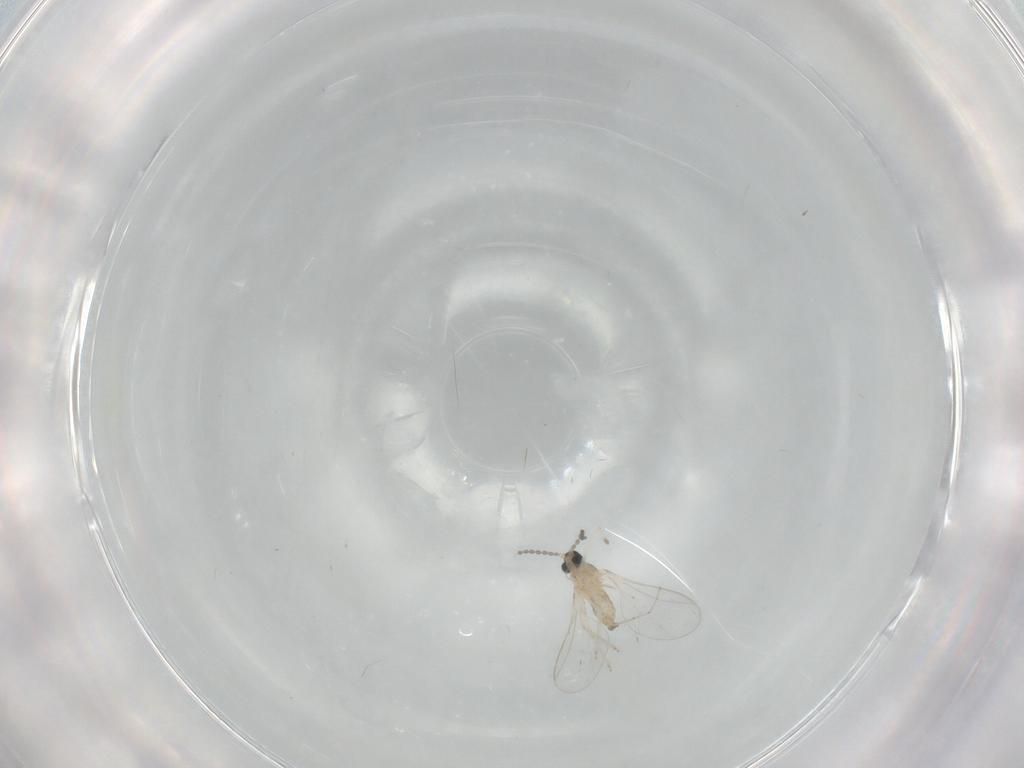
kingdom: Animalia
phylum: Arthropoda
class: Insecta
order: Diptera
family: Cecidomyiidae
